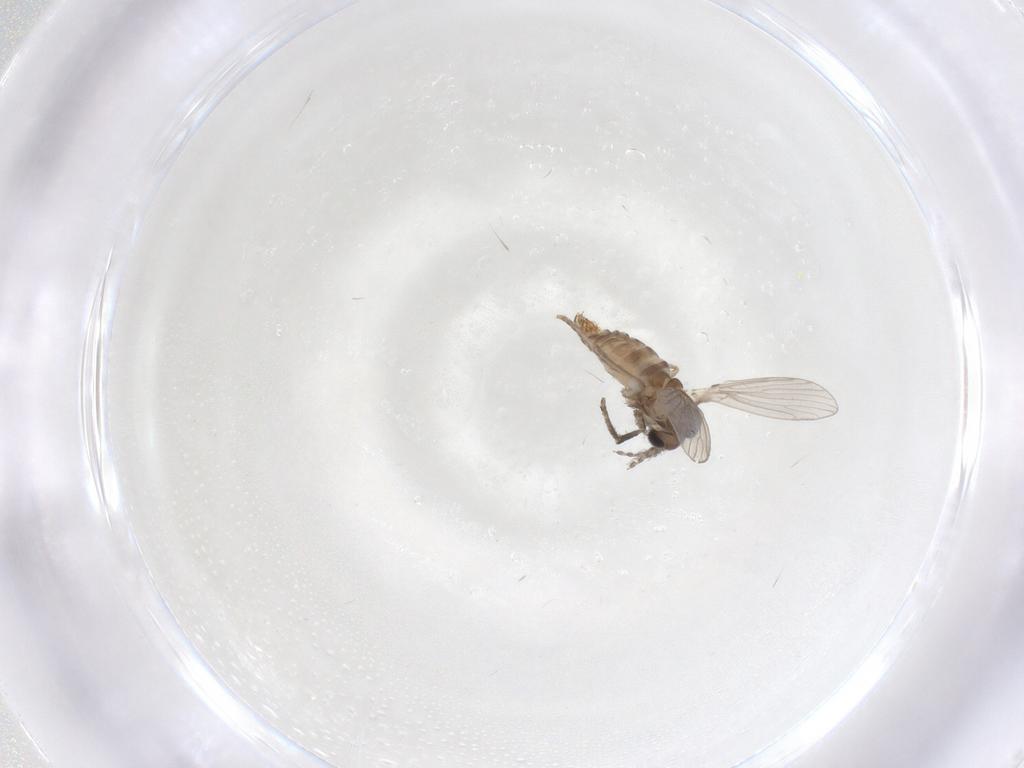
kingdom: Animalia
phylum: Arthropoda
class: Insecta
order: Diptera
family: Psychodidae
